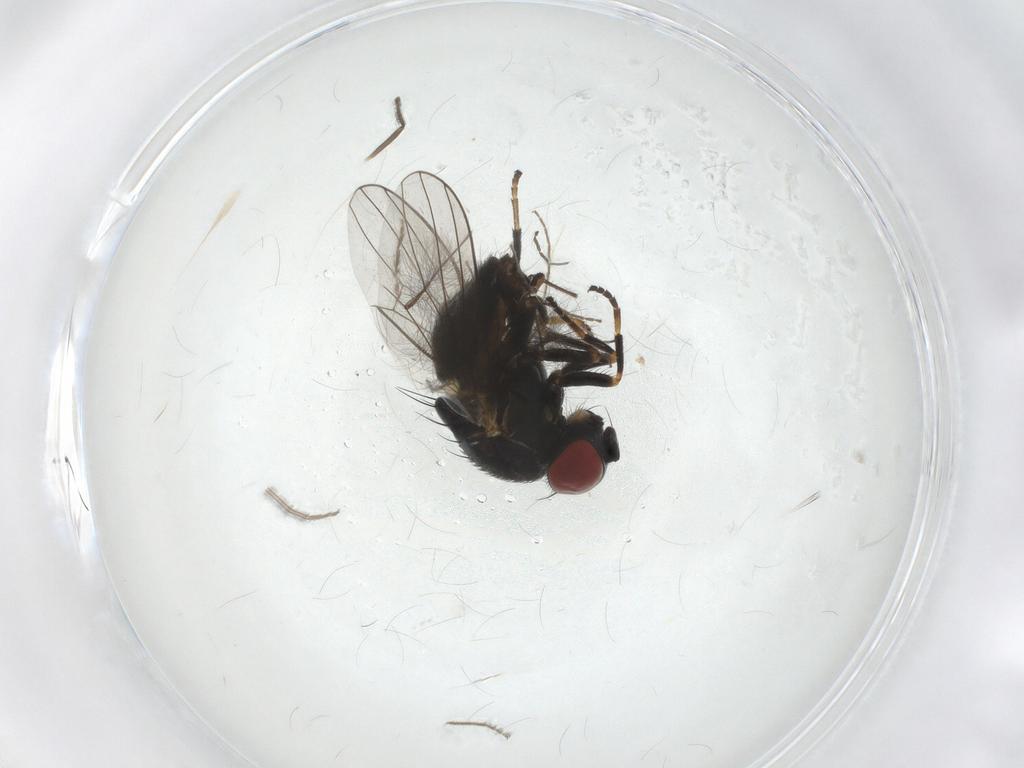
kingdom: Animalia
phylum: Arthropoda
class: Insecta
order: Diptera
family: Chamaemyiidae
